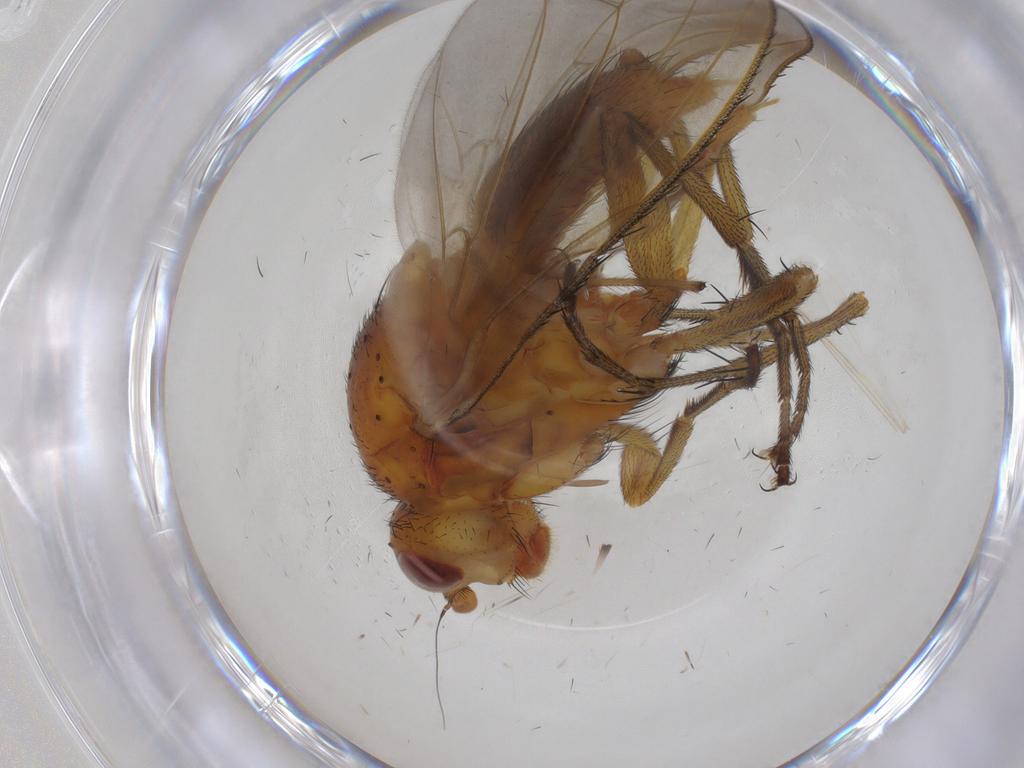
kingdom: Animalia
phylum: Arthropoda
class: Insecta
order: Diptera
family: Heleomyzidae
